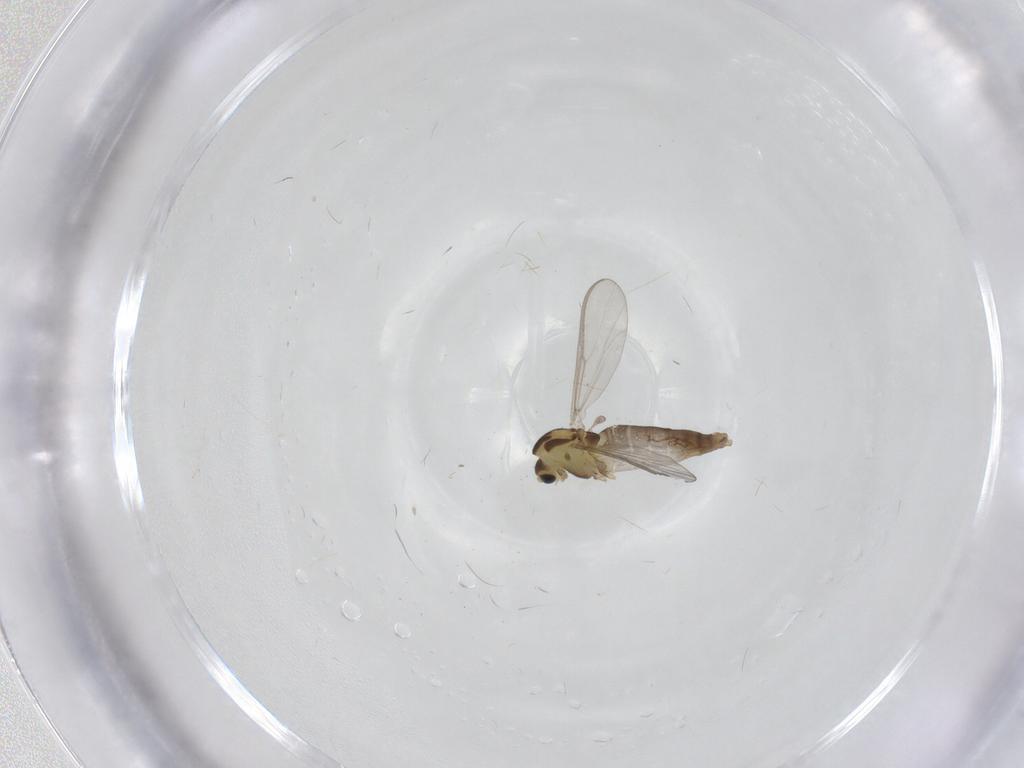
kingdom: Animalia
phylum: Arthropoda
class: Insecta
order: Diptera
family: Chironomidae
